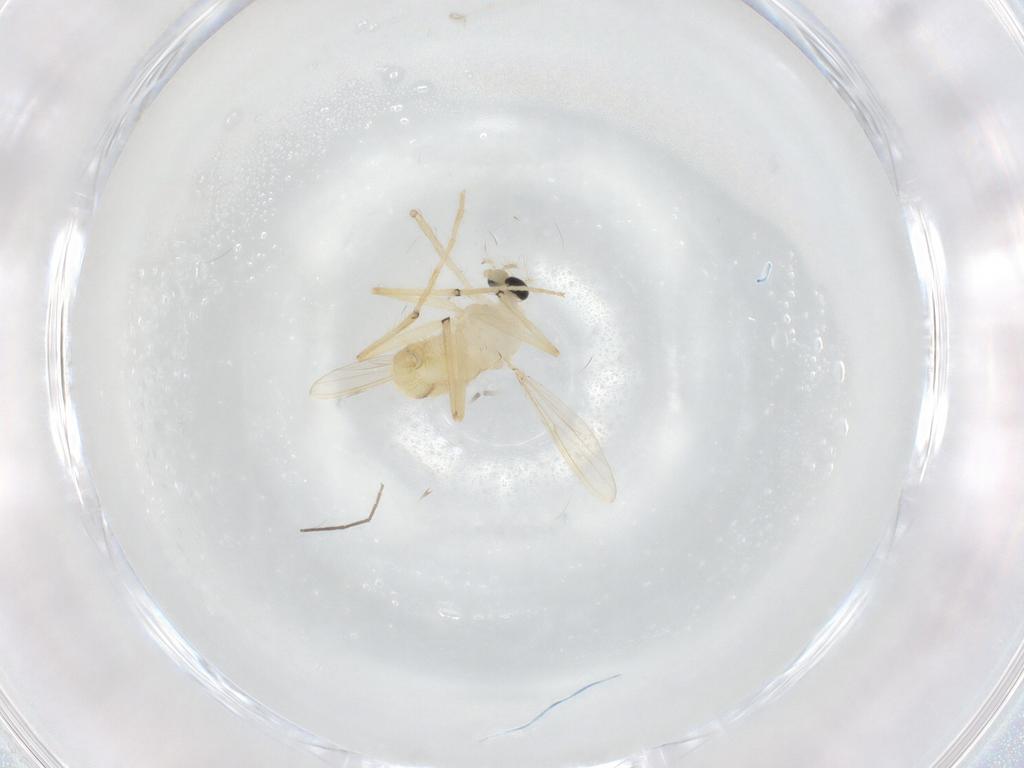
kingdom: Animalia
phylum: Arthropoda
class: Insecta
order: Diptera
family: Chironomidae
